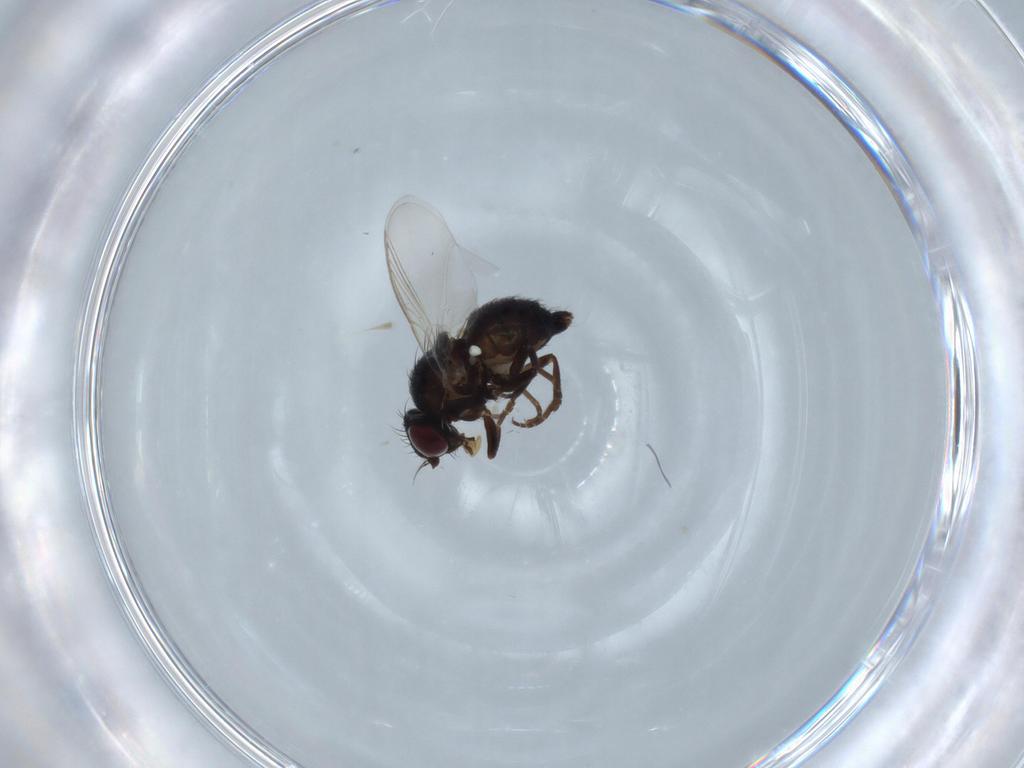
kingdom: Animalia
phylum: Arthropoda
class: Insecta
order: Diptera
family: Agromyzidae
